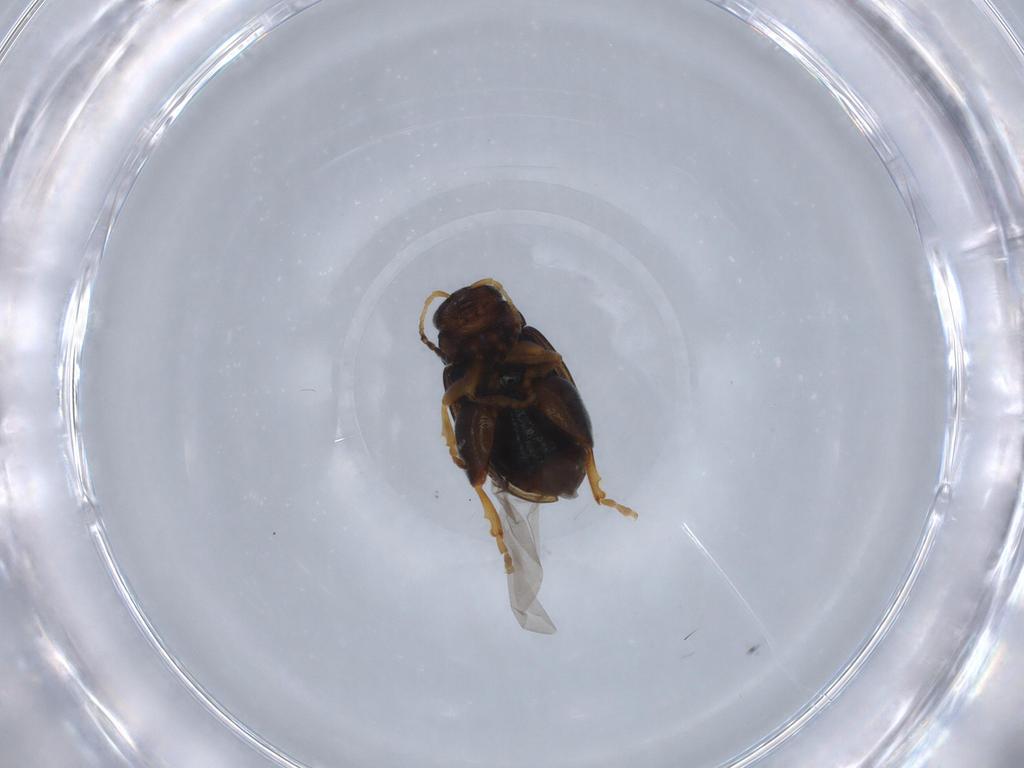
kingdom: Animalia
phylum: Arthropoda
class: Insecta
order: Coleoptera
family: Chrysomelidae
